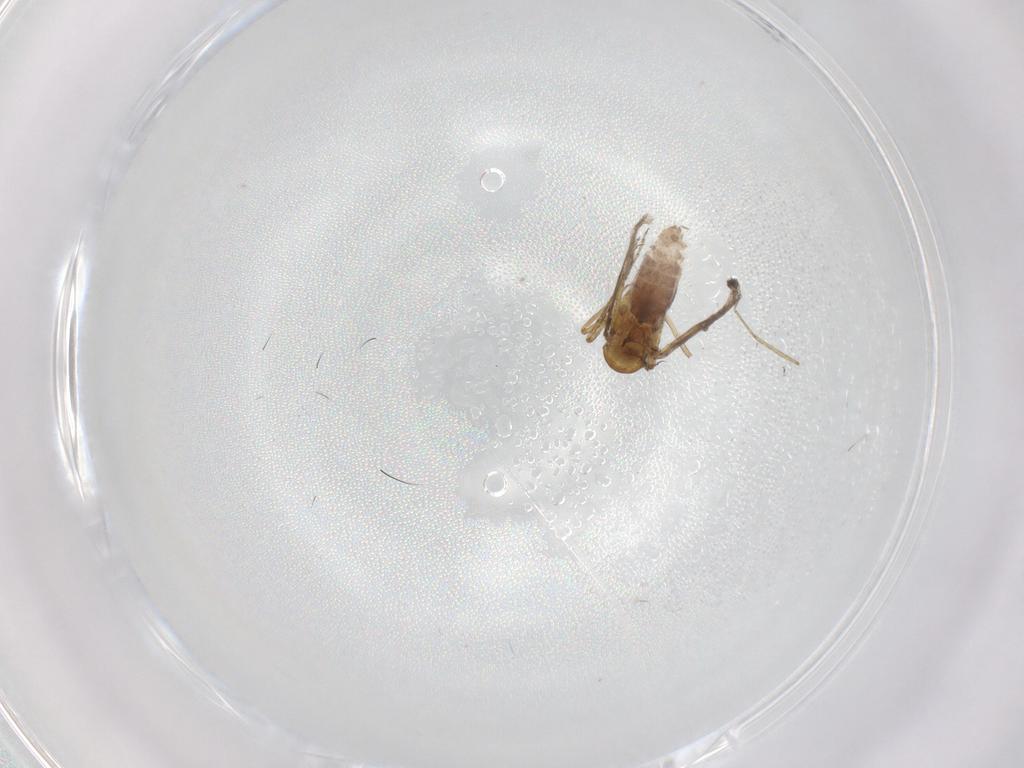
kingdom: Animalia
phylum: Arthropoda
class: Insecta
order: Diptera
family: Cecidomyiidae
